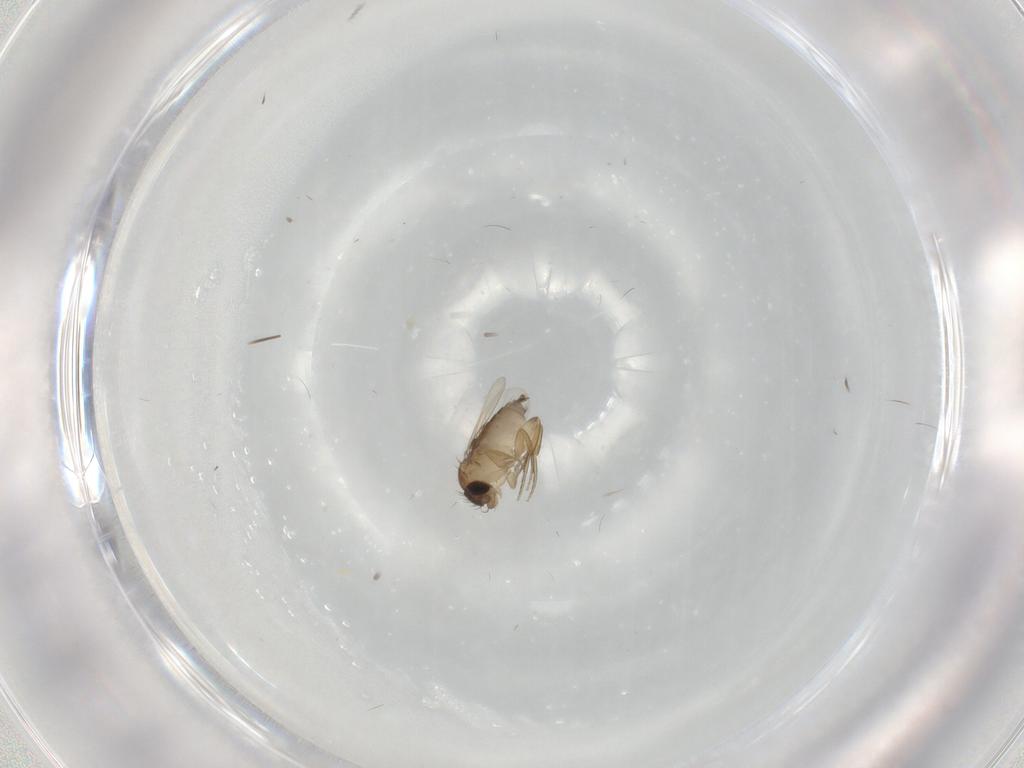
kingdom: Animalia
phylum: Arthropoda
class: Insecta
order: Diptera
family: Phoridae
